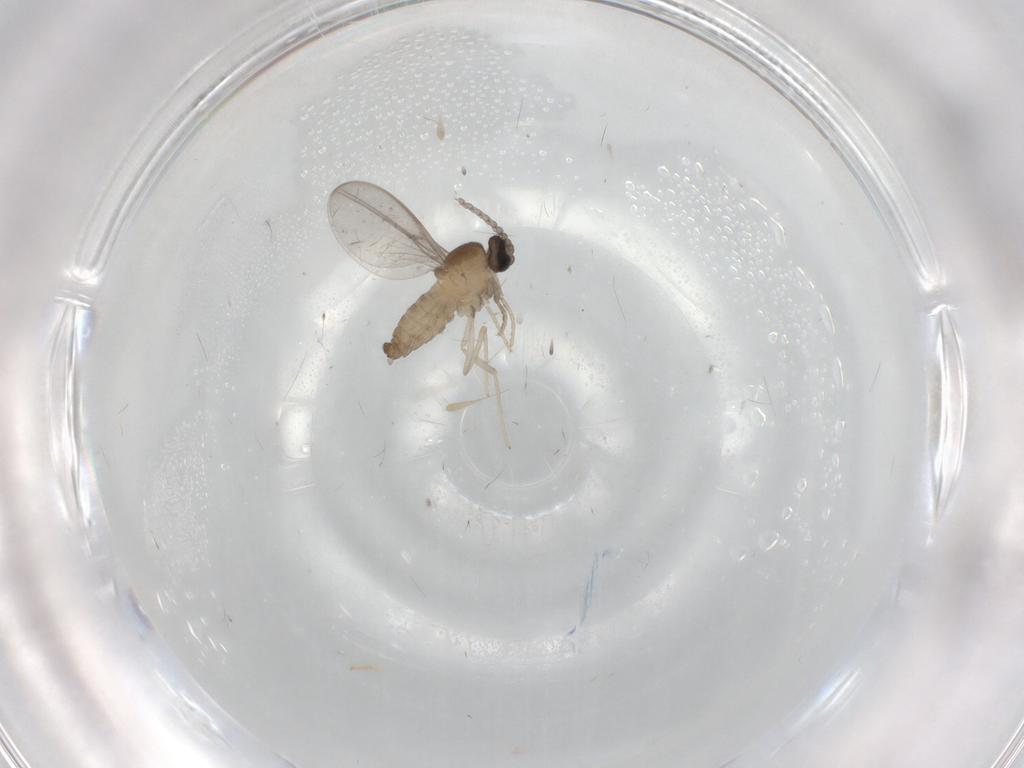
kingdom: Animalia
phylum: Arthropoda
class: Insecta
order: Diptera
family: Cecidomyiidae
